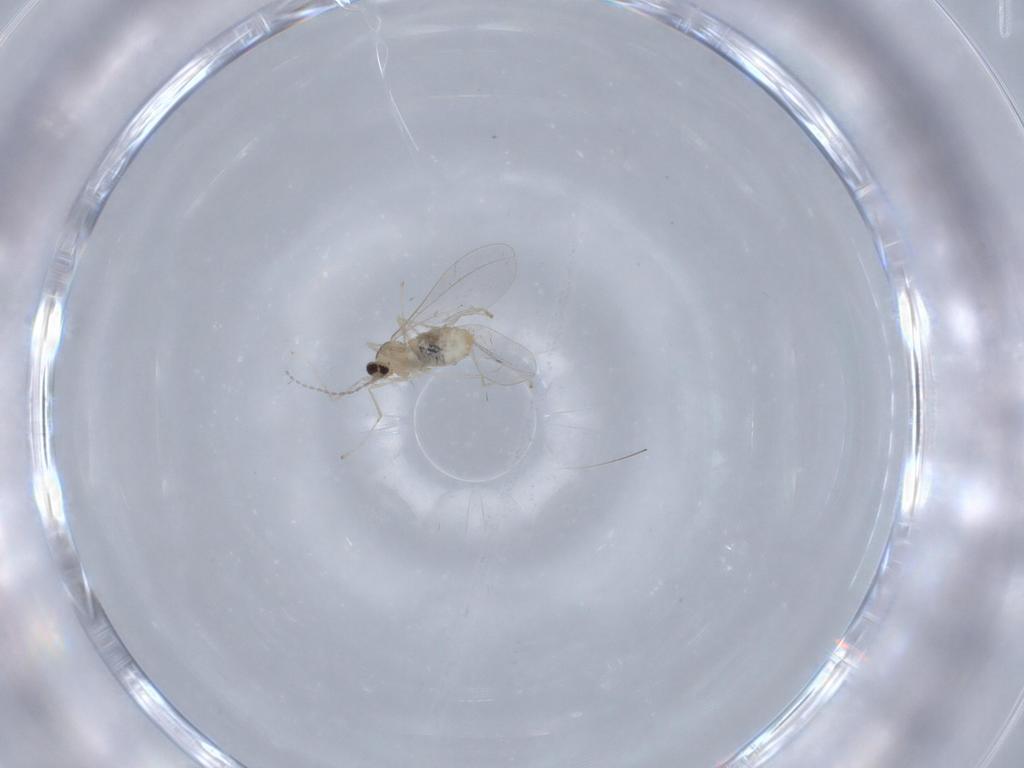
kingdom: Animalia
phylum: Arthropoda
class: Insecta
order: Diptera
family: Cecidomyiidae
